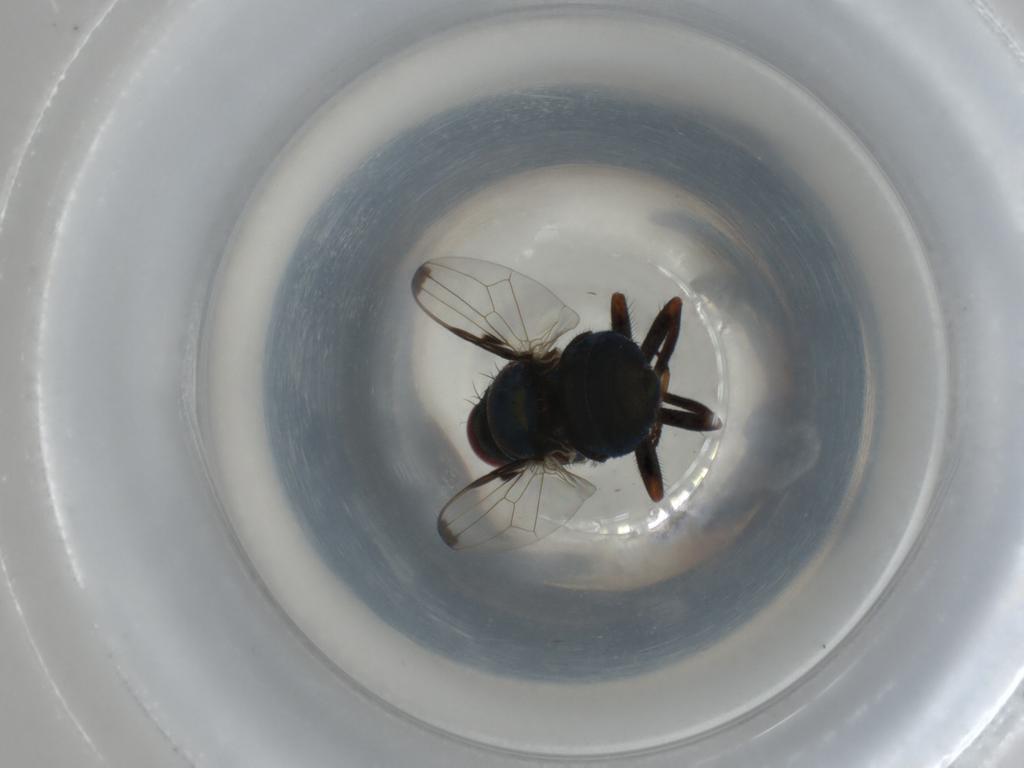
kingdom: Animalia
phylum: Arthropoda
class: Insecta
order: Diptera
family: Ulidiidae
